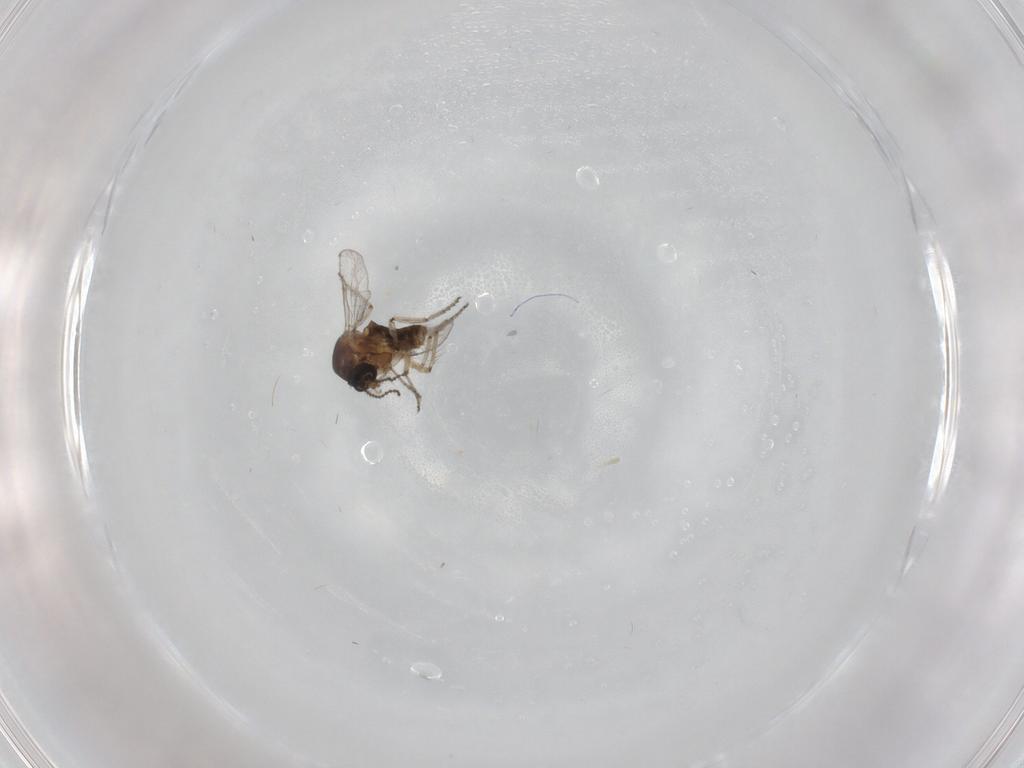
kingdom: Animalia
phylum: Arthropoda
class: Insecta
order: Diptera
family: Ceratopogonidae
